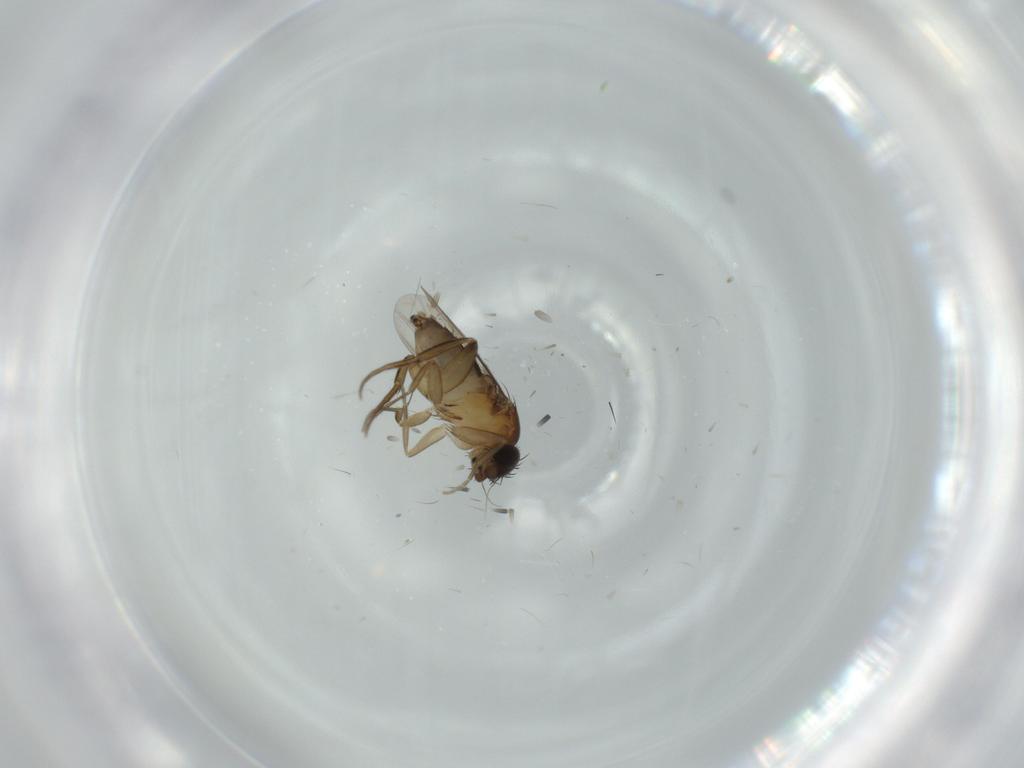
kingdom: Animalia
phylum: Arthropoda
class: Insecta
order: Diptera
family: Phoridae
